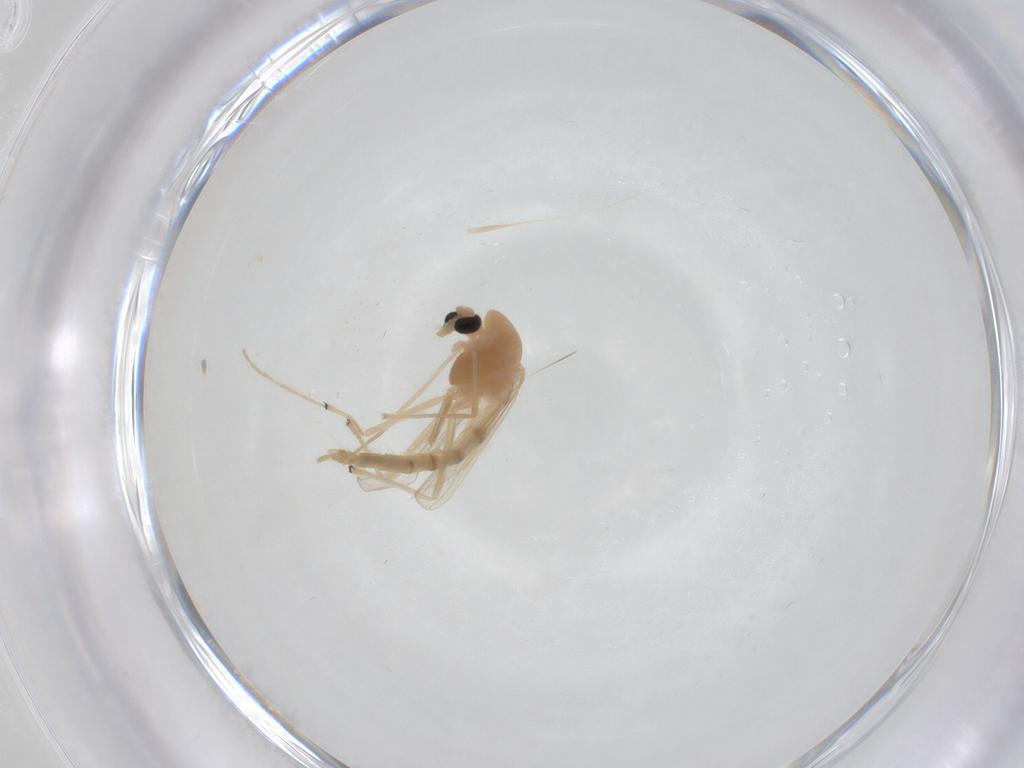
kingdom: Animalia
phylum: Arthropoda
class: Insecta
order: Diptera
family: Chironomidae
